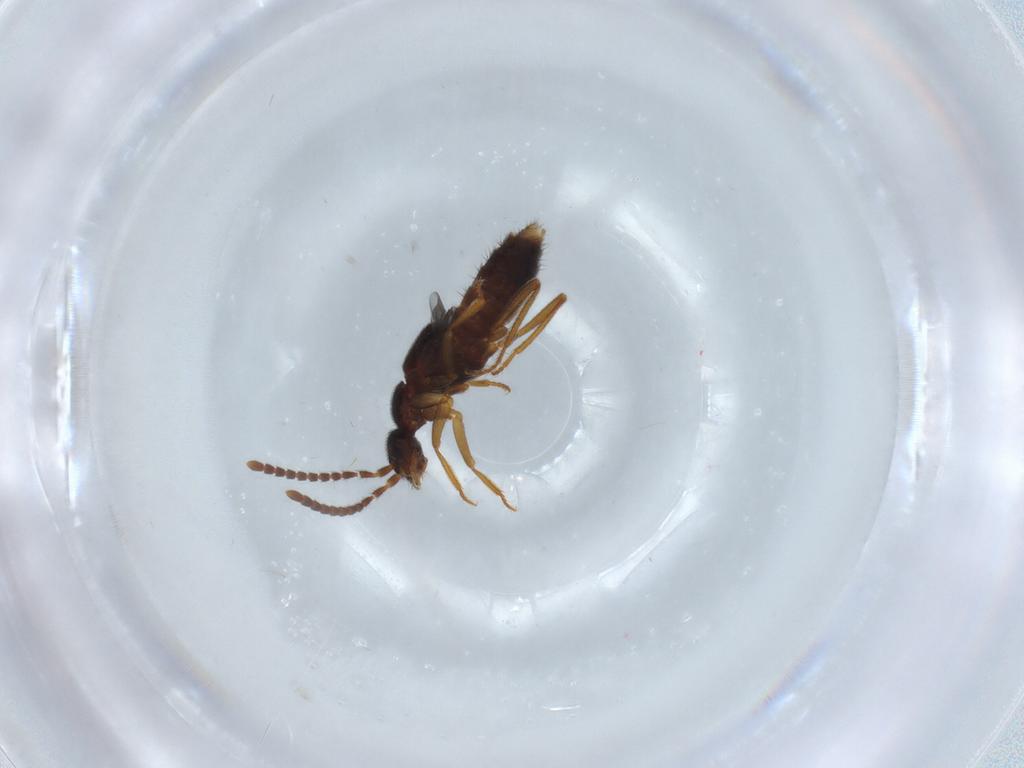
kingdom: Animalia
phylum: Arthropoda
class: Insecta
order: Coleoptera
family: Staphylinidae
